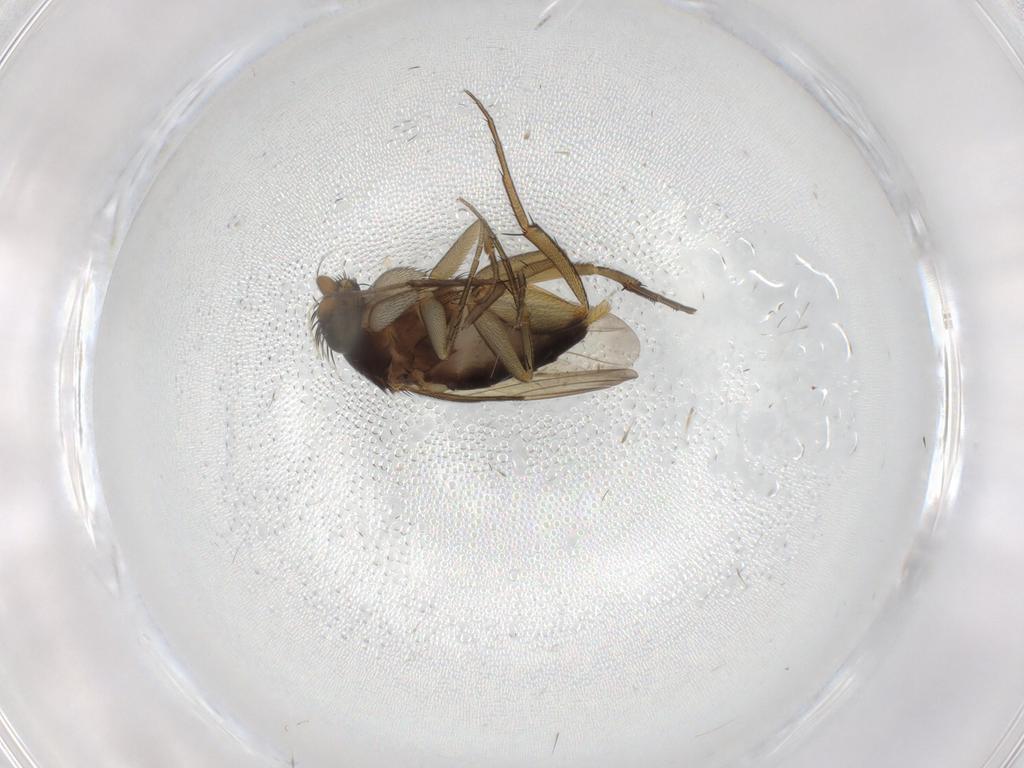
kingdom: Animalia
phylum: Arthropoda
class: Insecta
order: Diptera
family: Phoridae
